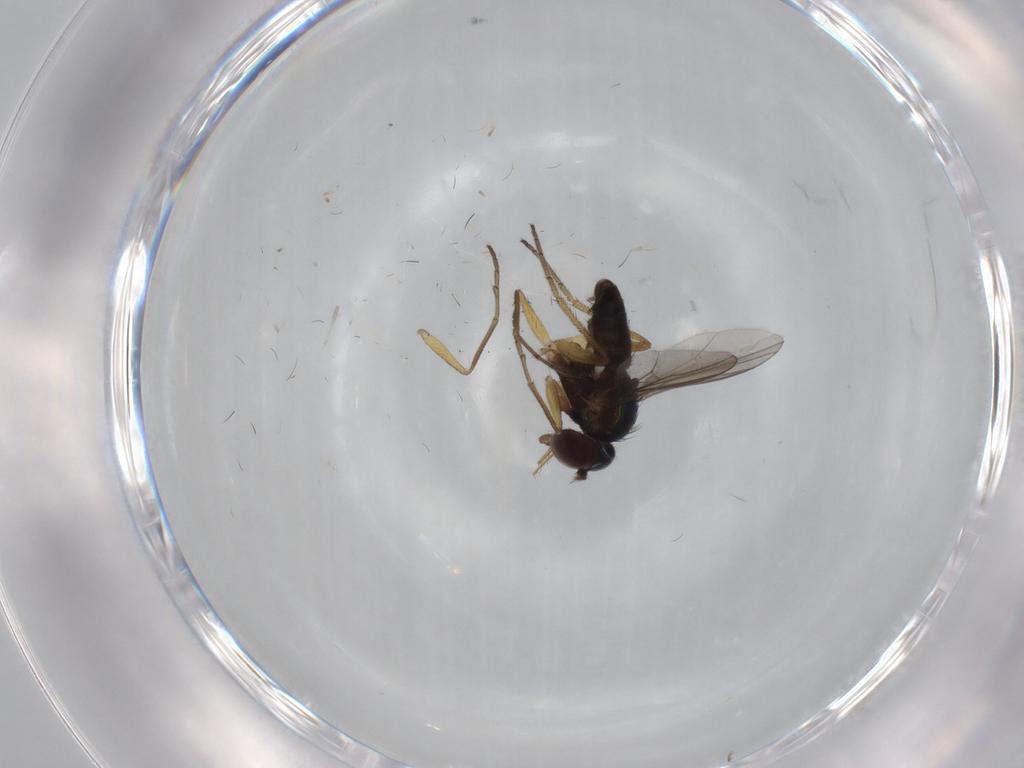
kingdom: Animalia
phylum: Arthropoda
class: Insecta
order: Diptera
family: Dolichopodidae
